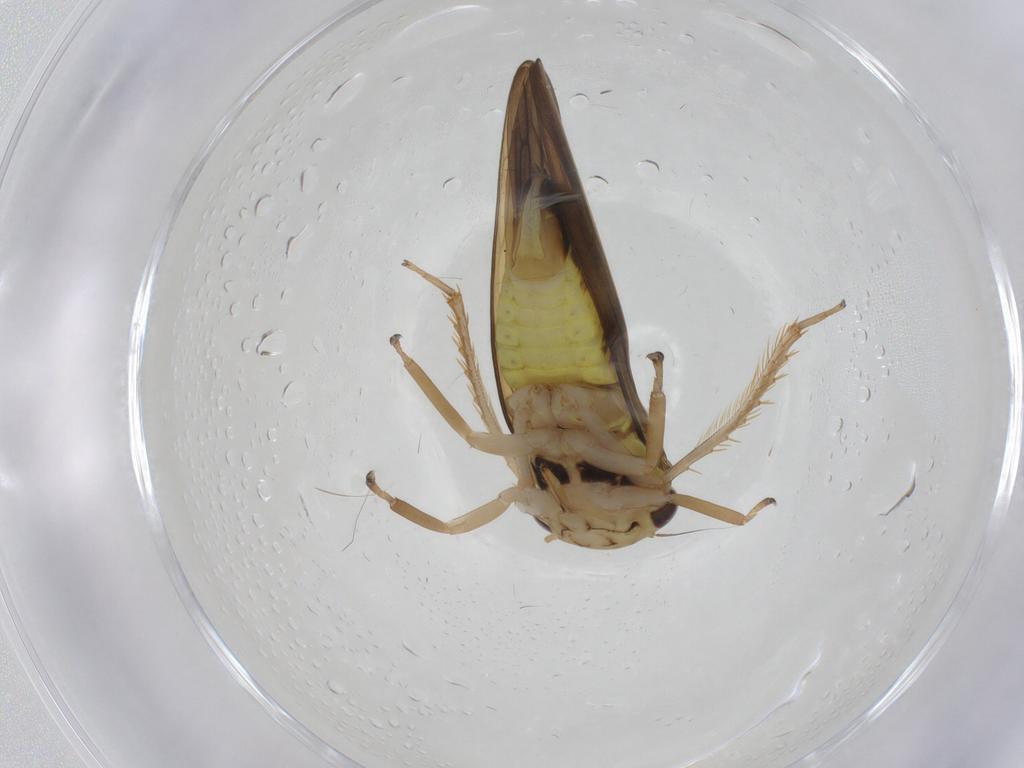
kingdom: Animalia
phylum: Arthropoda
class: Insecta
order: Hemiptera
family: Cicadellidae
